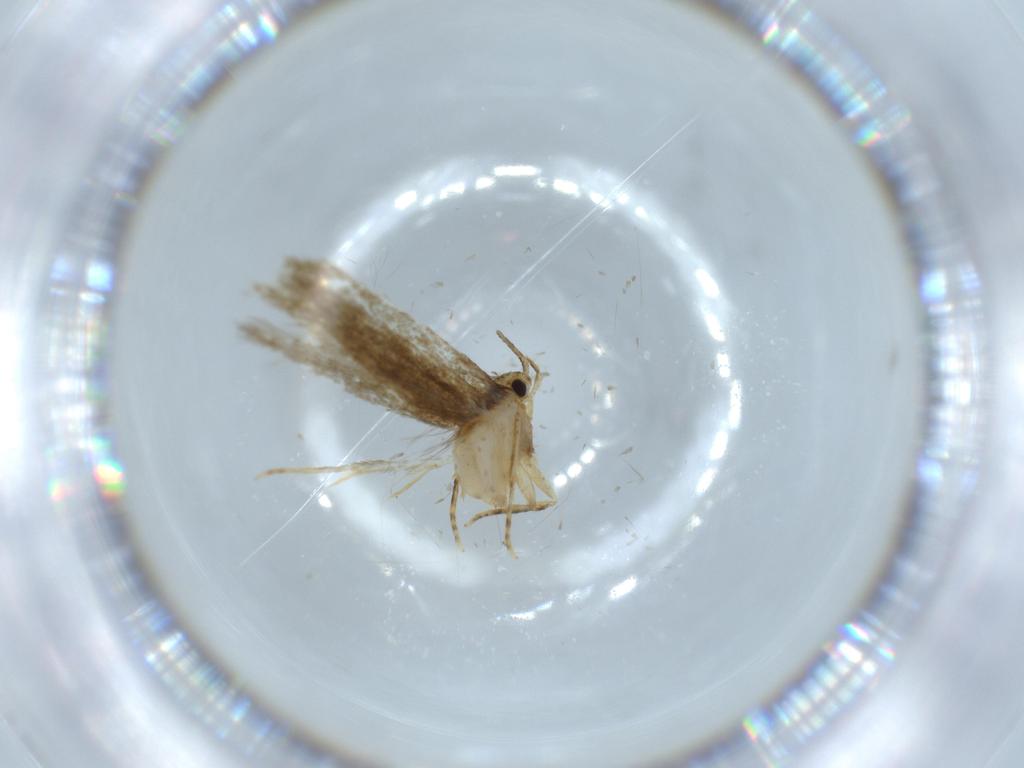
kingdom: Animalia
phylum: Arthropoda
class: Insecta
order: Lepidoptera
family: Tineidae
